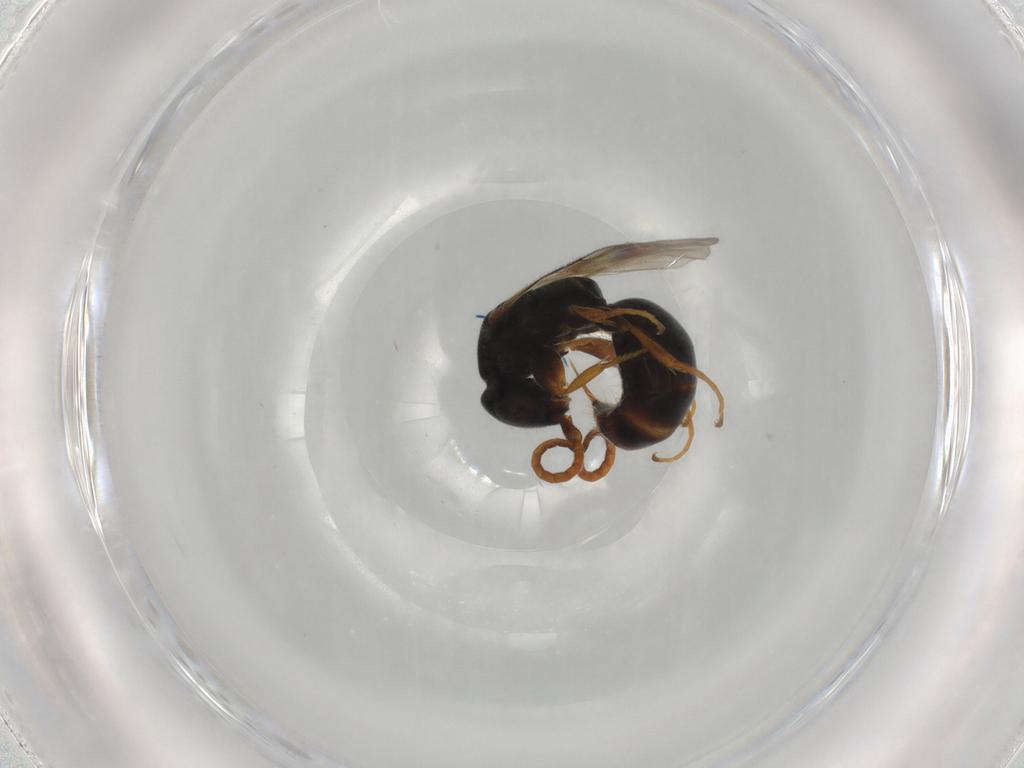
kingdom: Animalia
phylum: Arthropoda
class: Insecta
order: Hymenoptera
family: Bethylidae
